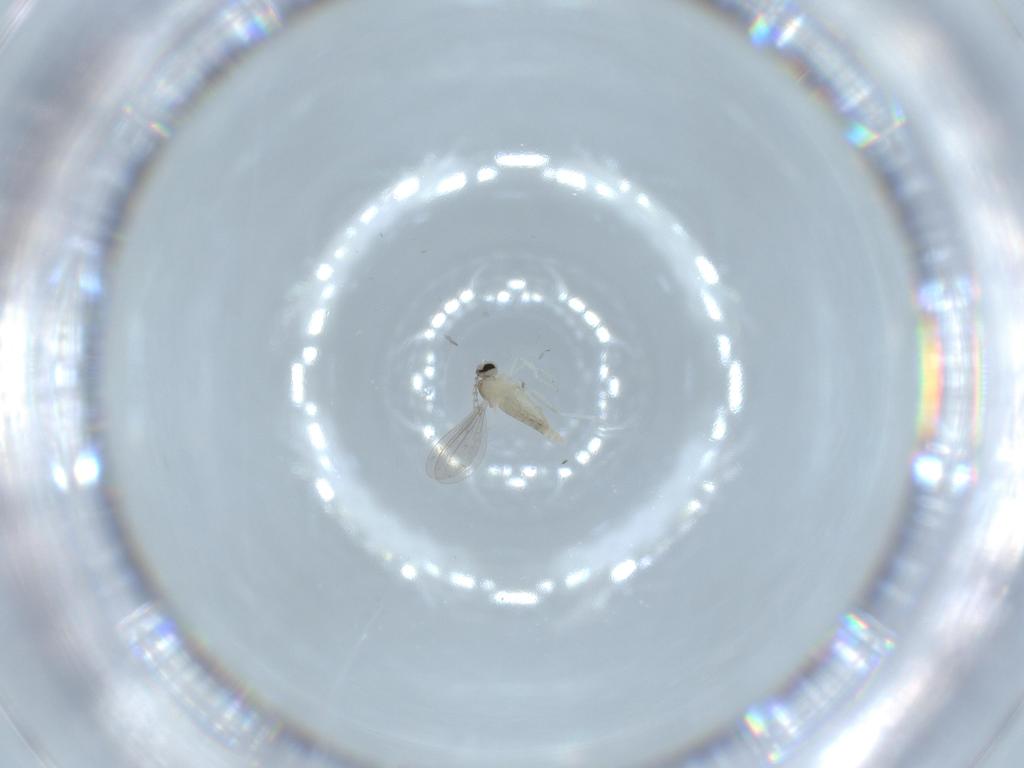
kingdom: Animalia
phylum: Arthropoda
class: Insecta
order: Diptera
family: Cecidomyiidae
